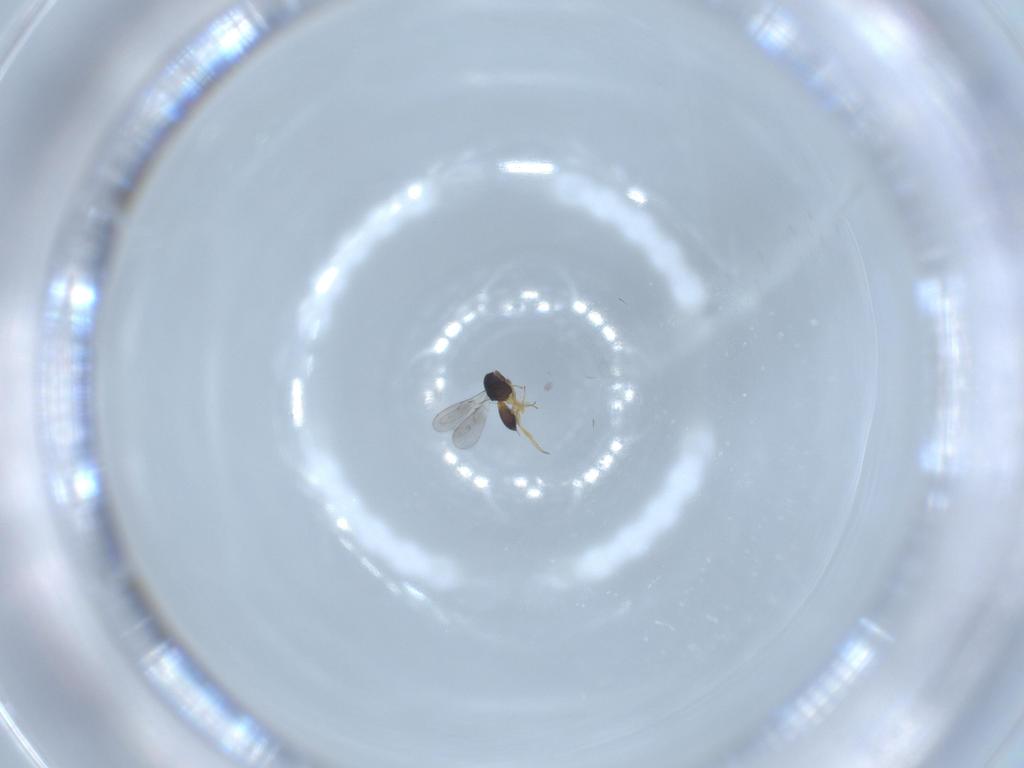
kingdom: Animalia
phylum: Arthropoda
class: Insecta
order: Hymenoptera
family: Scelionidae
